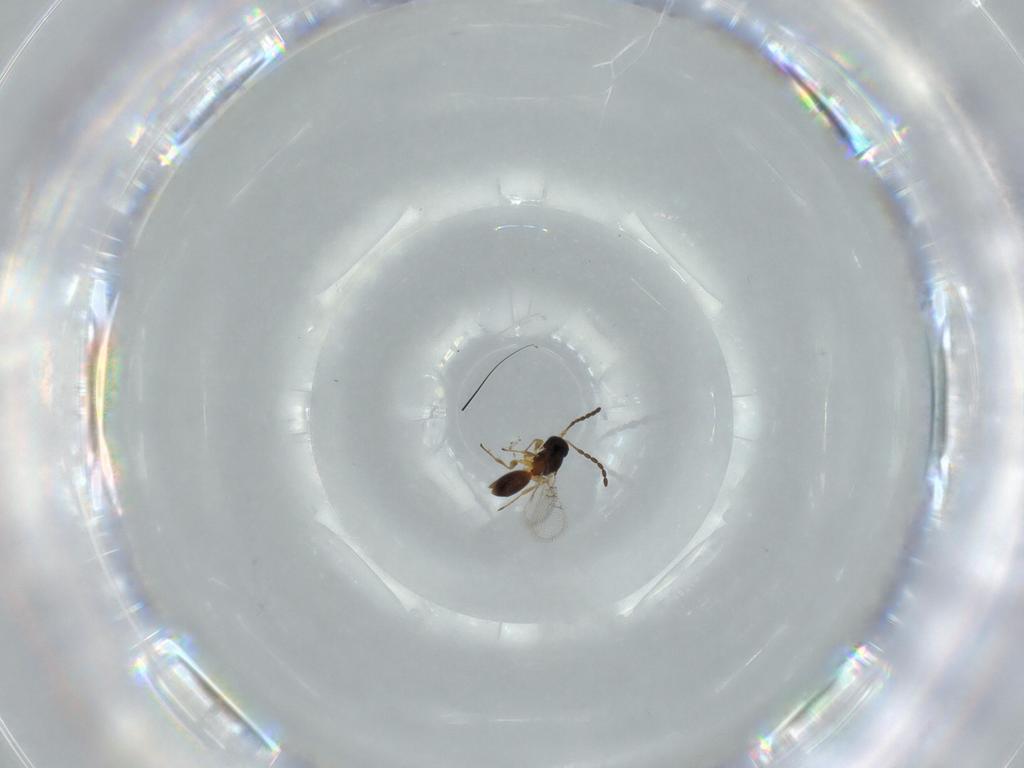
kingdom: Animalia
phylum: Arthropoda
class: Insecta
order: Hymenoptera
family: Figitidae
